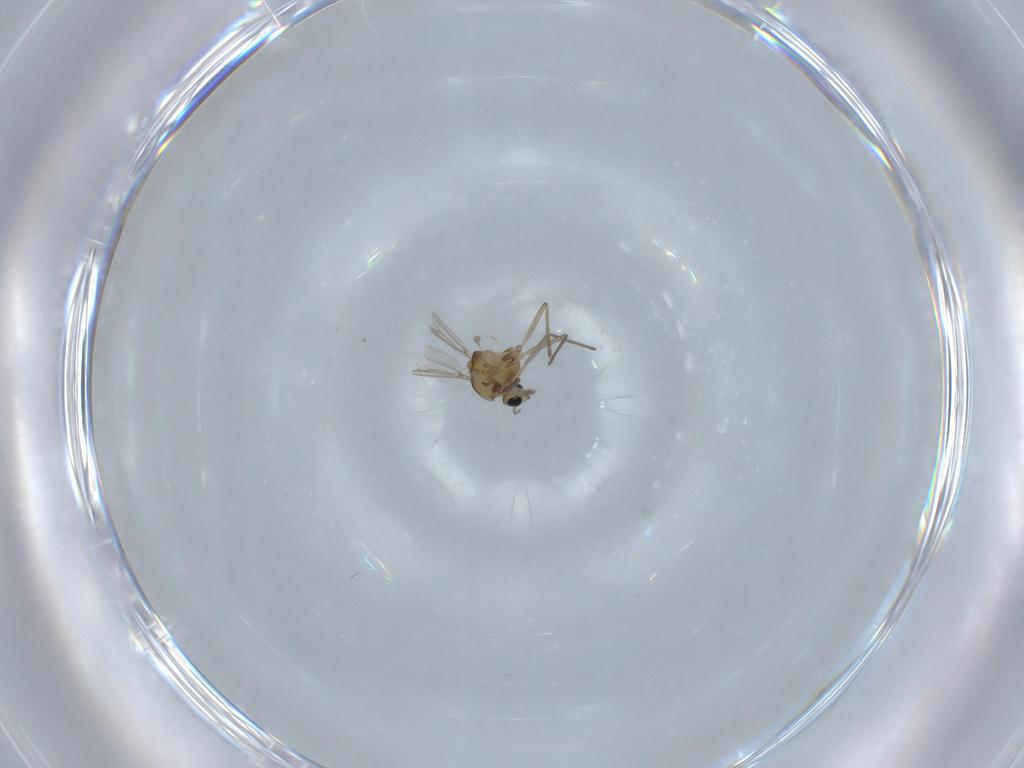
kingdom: Animalia
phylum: Arthropoda
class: Insecta
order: Diptera
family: Chironomidae
